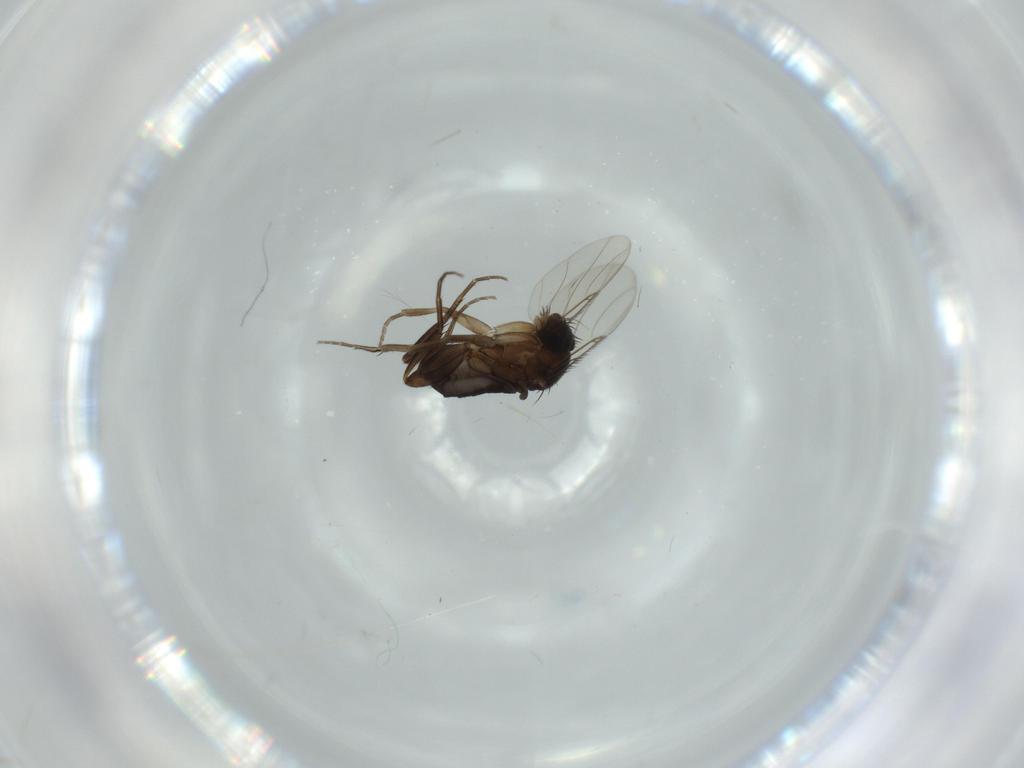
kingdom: Animalia
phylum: Arthropoda
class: Insecta
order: Diptera
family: Phoridae
